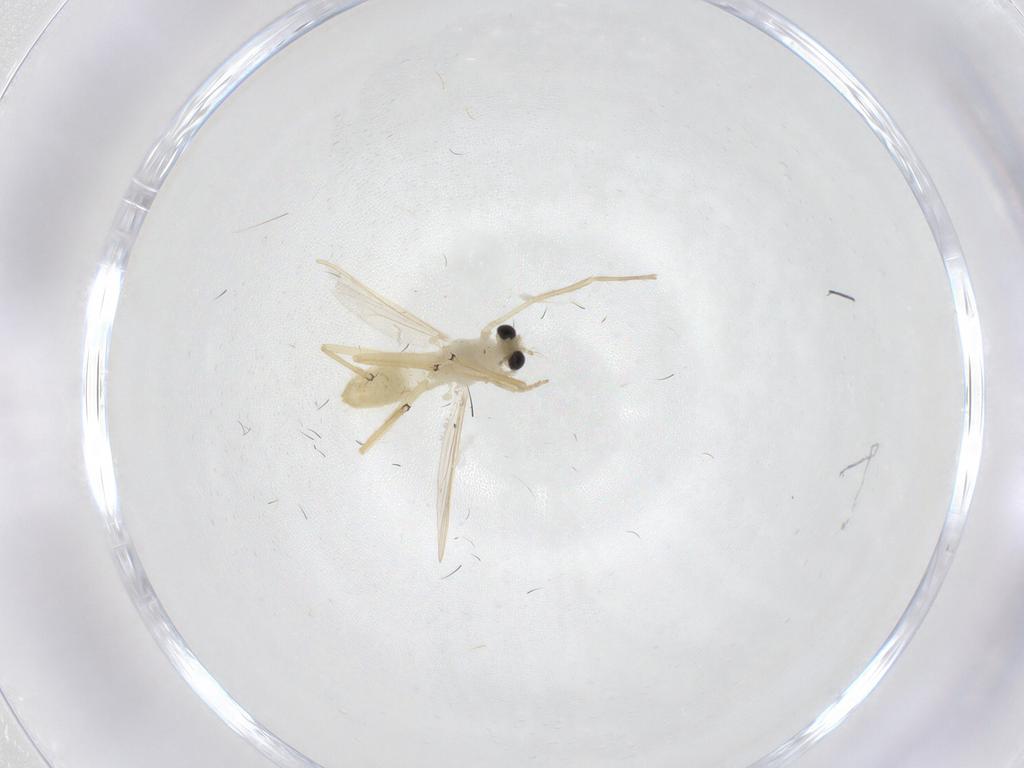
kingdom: Animalia
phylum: Arthropoda
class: Insecta
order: Diptera
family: Chironomidae
